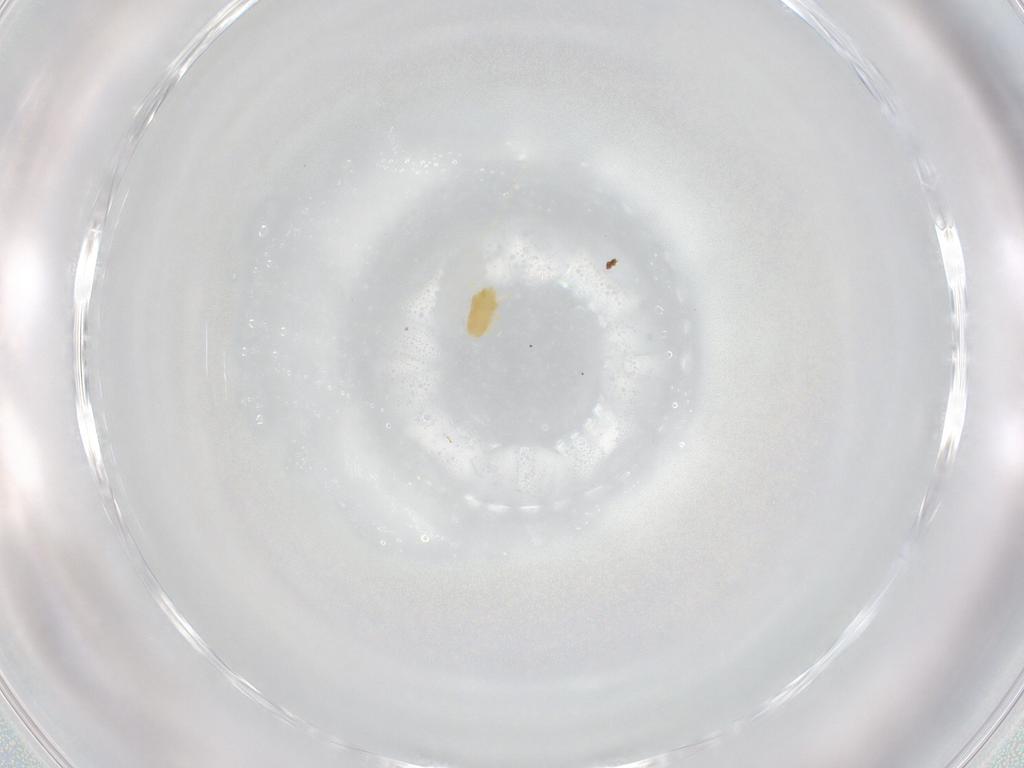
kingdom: Animalia
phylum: Arthropoda
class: Arachnida
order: Trombidiformes
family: Eupodidae
